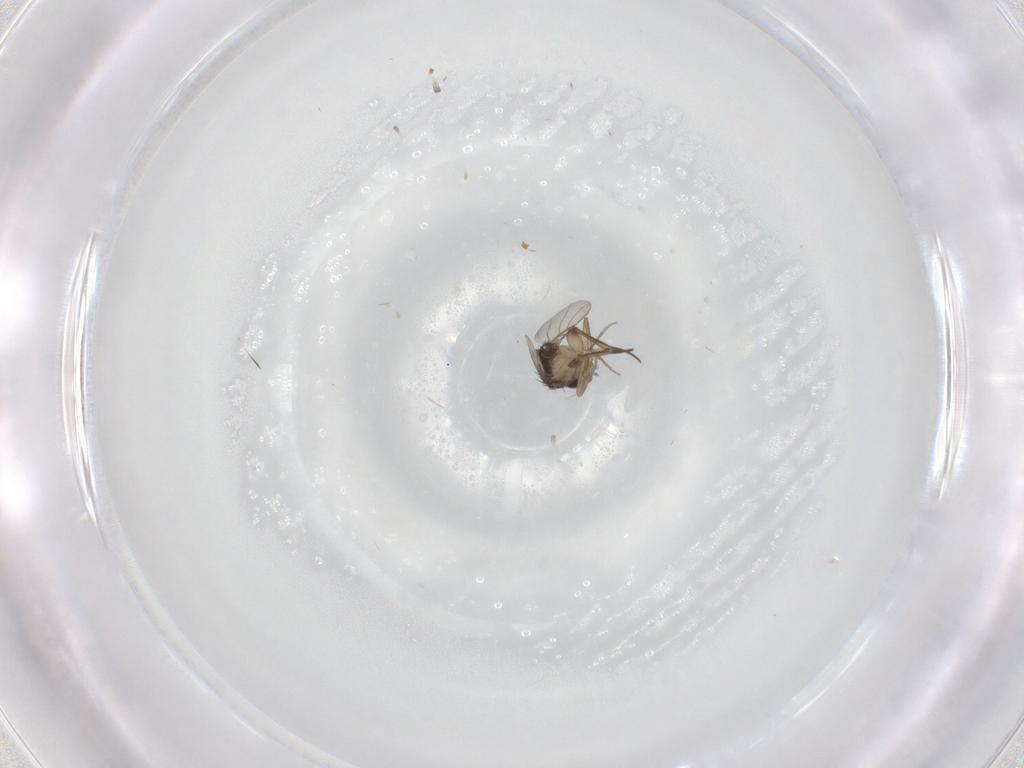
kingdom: Animalia
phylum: Arthropoda
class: Insecta
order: Diptera
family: Phoridae
